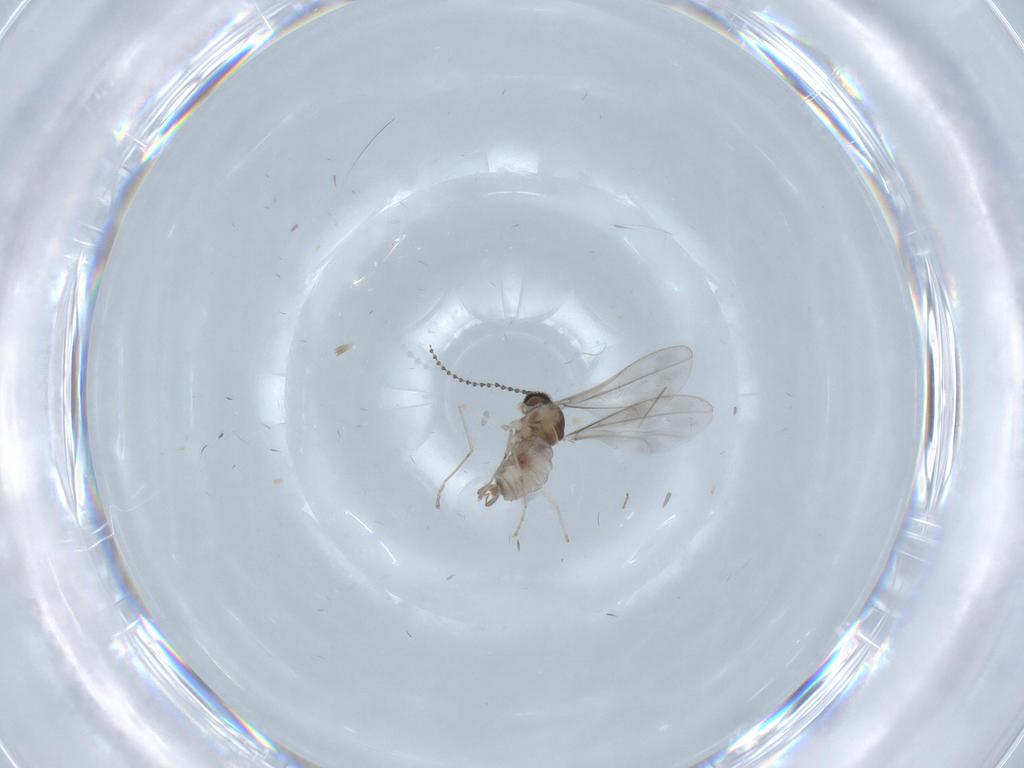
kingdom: Animalia
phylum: Arthropoda
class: Insecta
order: Diptera
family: Cecidomyiidae
